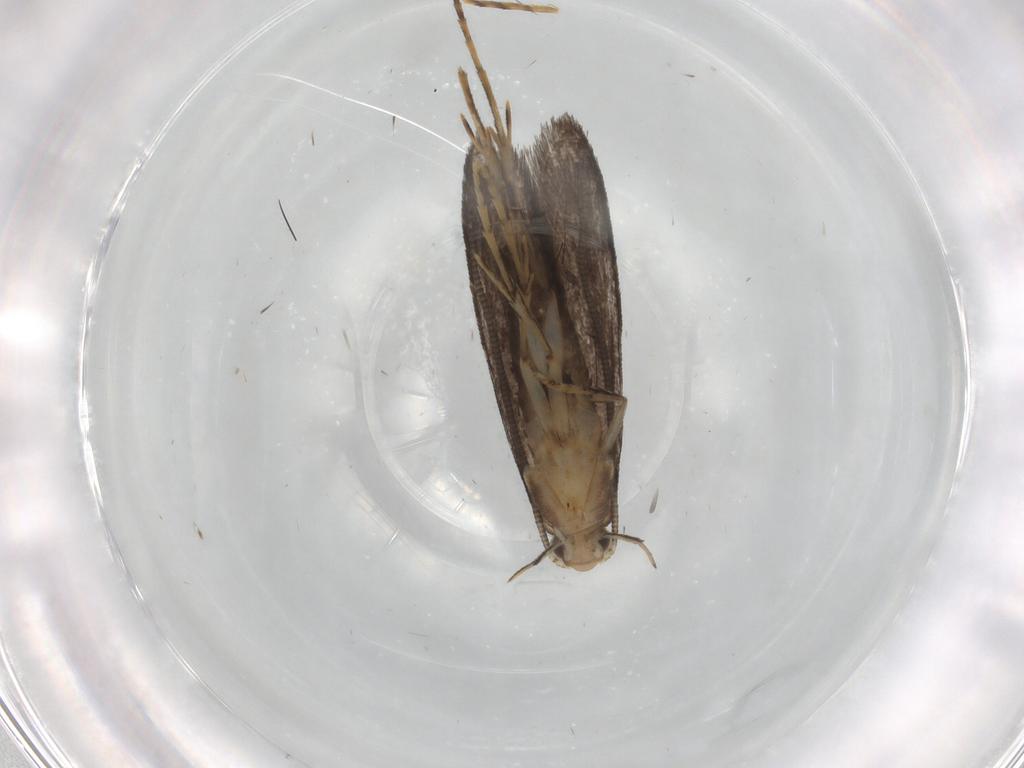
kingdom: Animalia
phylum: Arthropoda
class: Insecta
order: Lepidoptera
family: Tineidae
